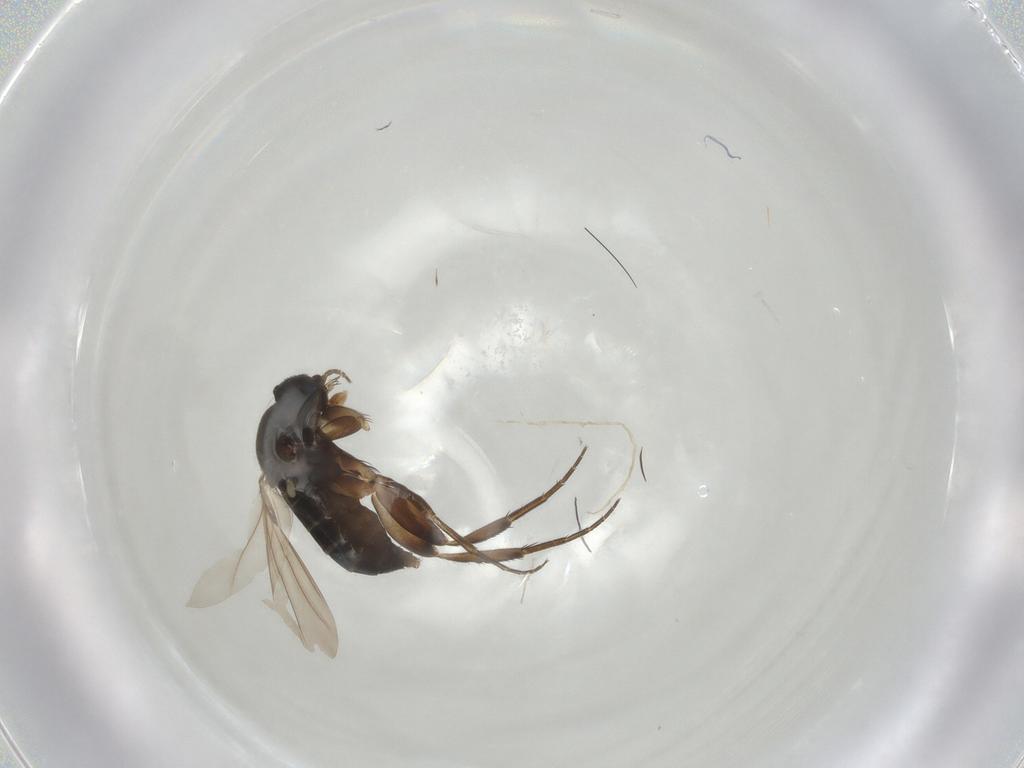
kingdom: Animalia
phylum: Arthropoda
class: Insecta
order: Diptera
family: Phoridae
